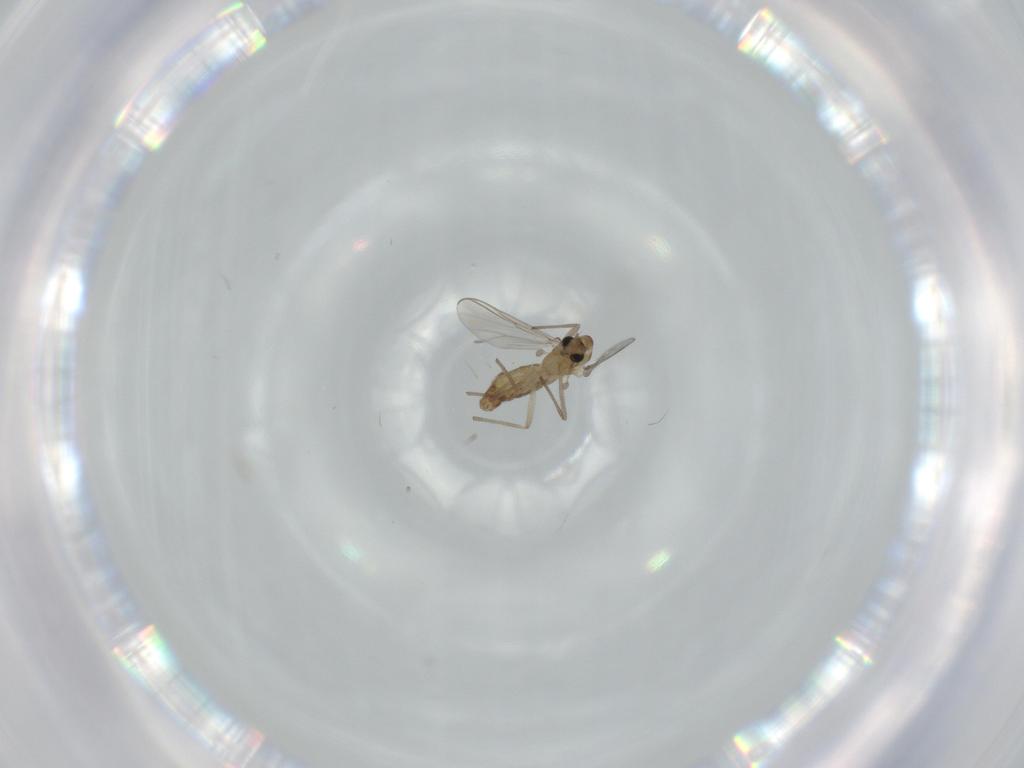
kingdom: Animalia
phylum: Arthropoda
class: Insecta
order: Diptera
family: Chironomidae
